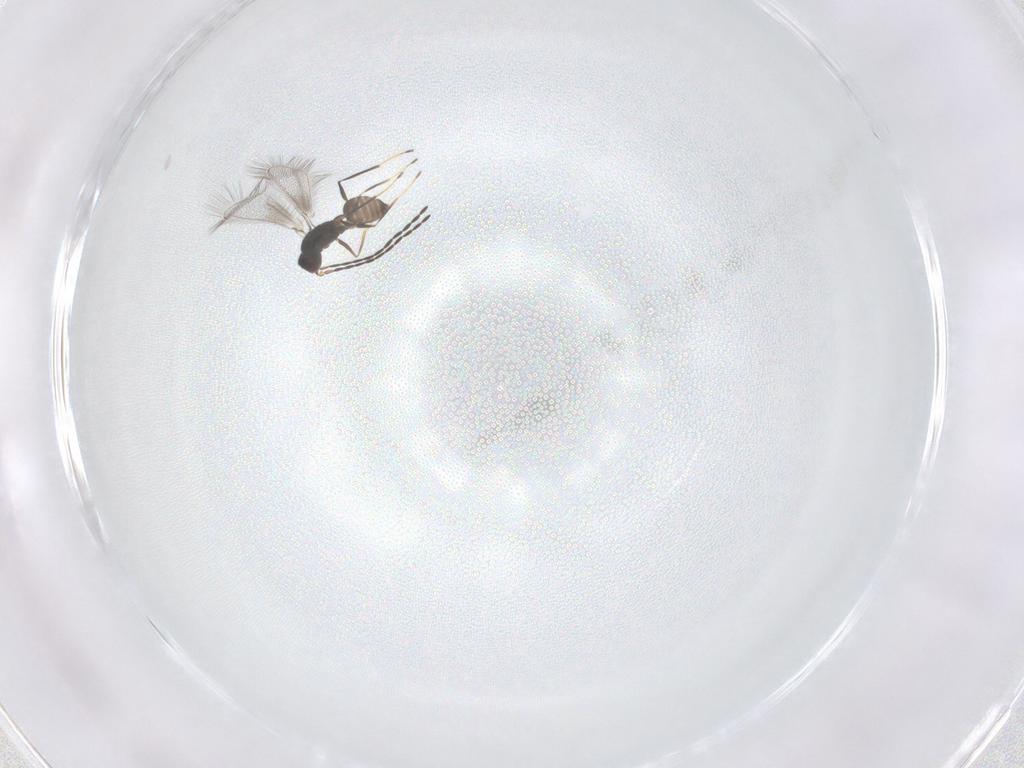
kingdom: Animalia
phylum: Arthropoda
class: Insecta
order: Hymenoptera
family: Mymaridae
